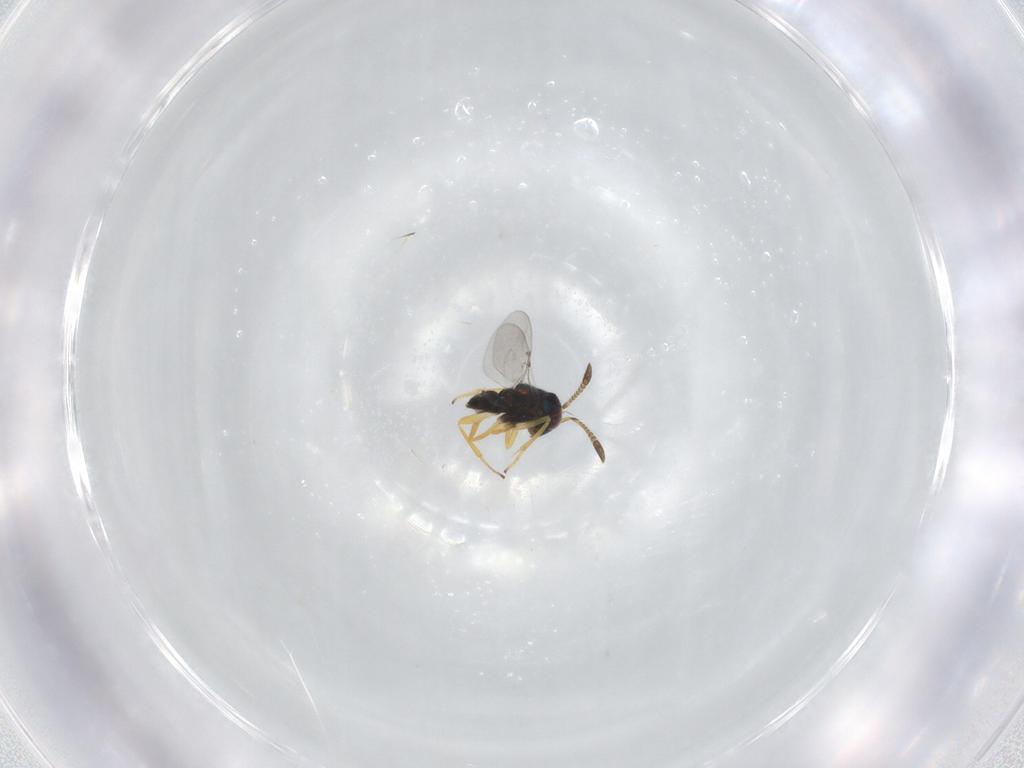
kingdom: Animalia
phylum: Arthropoda
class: Insecta
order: Hymenoptera
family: Encyrtidae
